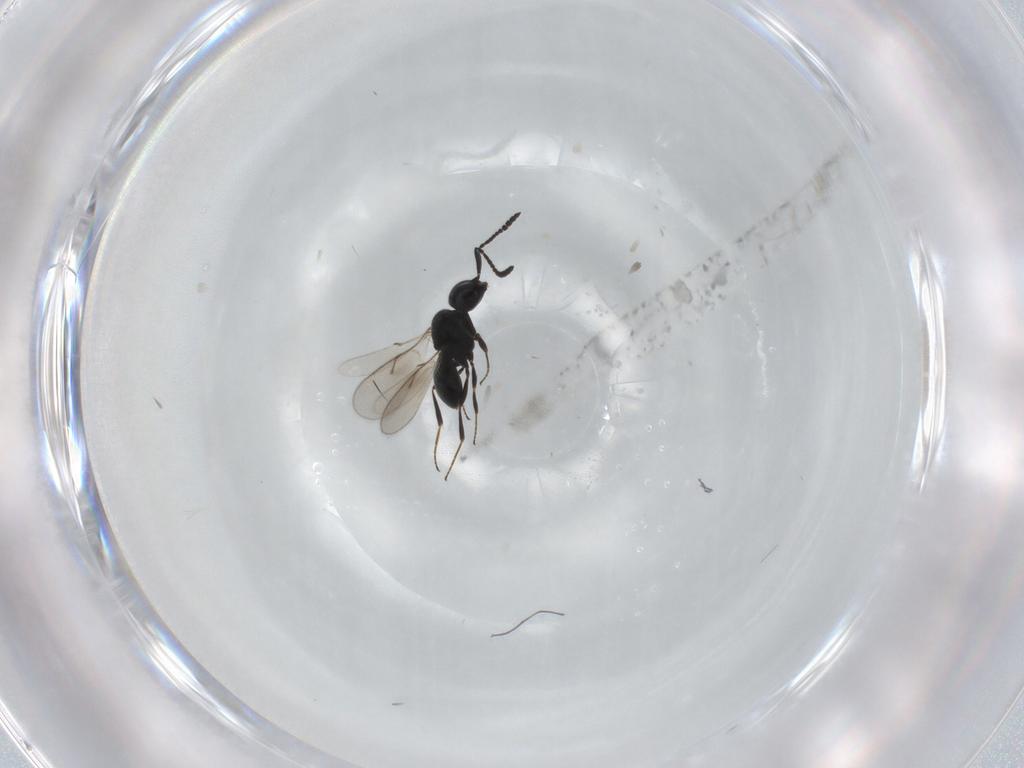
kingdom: Animalia
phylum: Arthropoda
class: Insecta
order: Hymenoptera
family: Scelionidae
